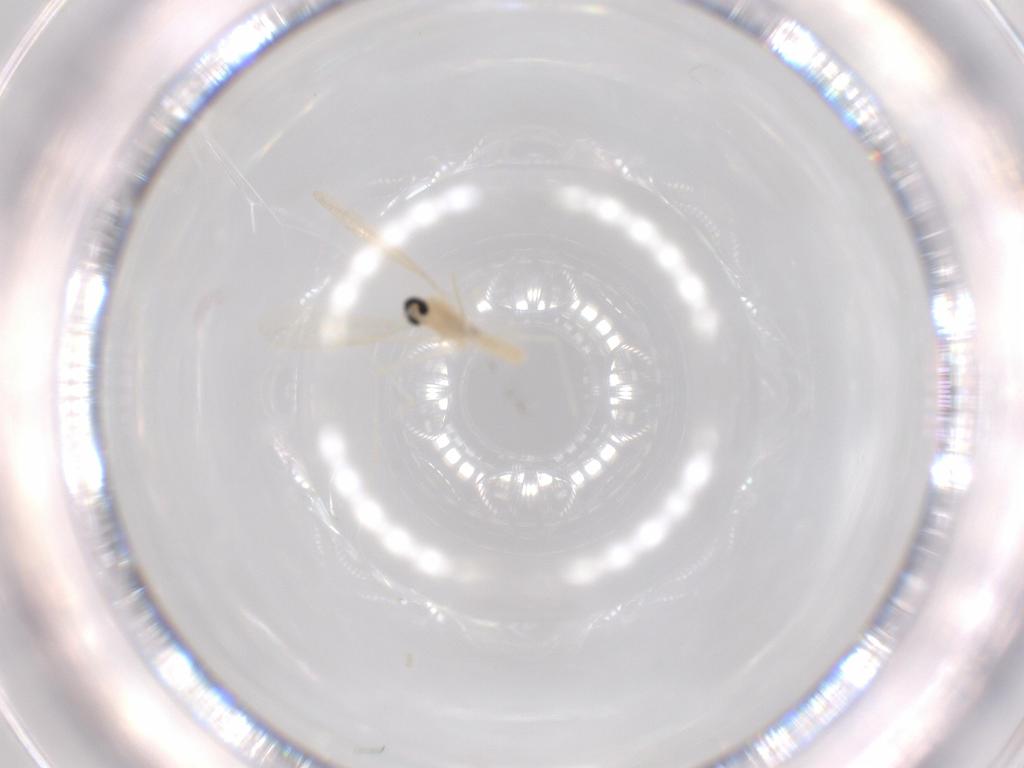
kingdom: Animalia
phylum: Arthropoda
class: Insecta
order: Diptera
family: Cecidomyiidae
